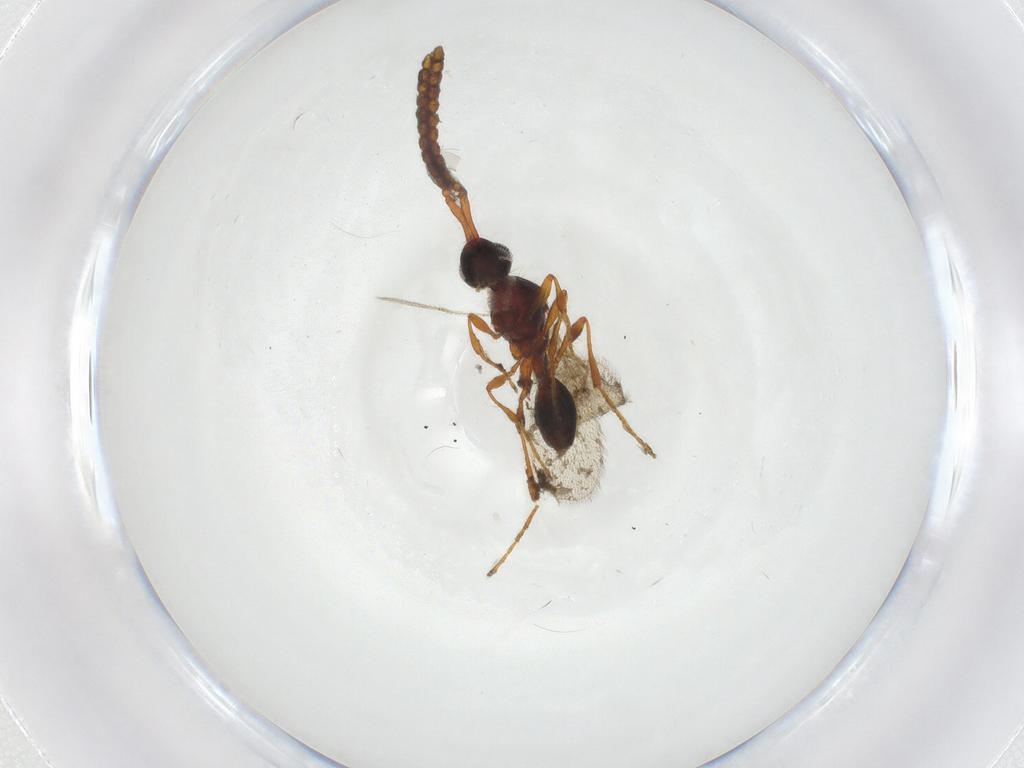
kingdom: Animalia
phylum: Arthropoda
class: Insecta
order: Hymenoptera
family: Diapriidae
